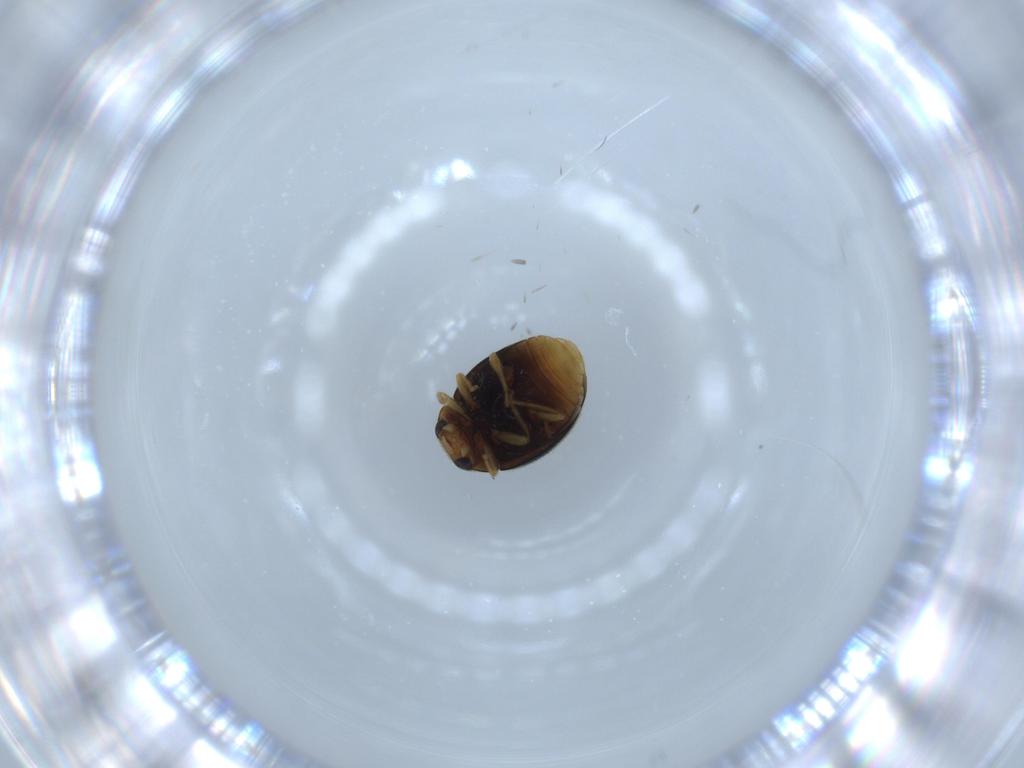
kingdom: Animalia
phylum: Arthropoda
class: Insecta
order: Coleoptera
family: Coccinellidae
